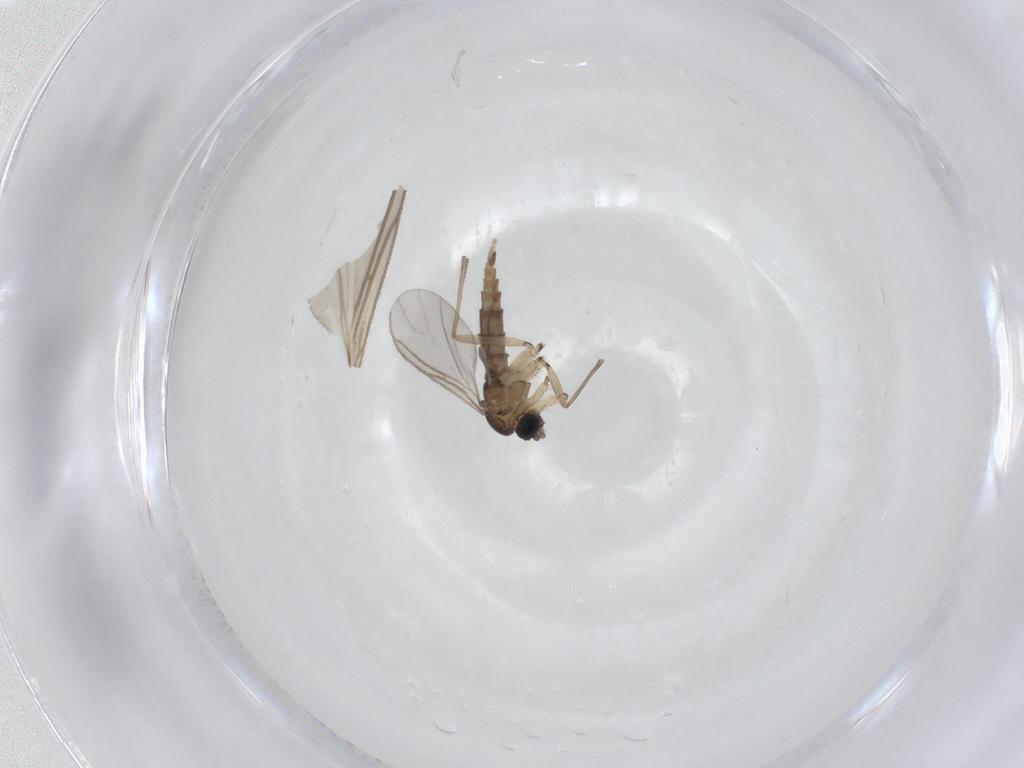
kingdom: Animalia
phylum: Arthropoda
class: Insecta
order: Diptera
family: Sciaridae
